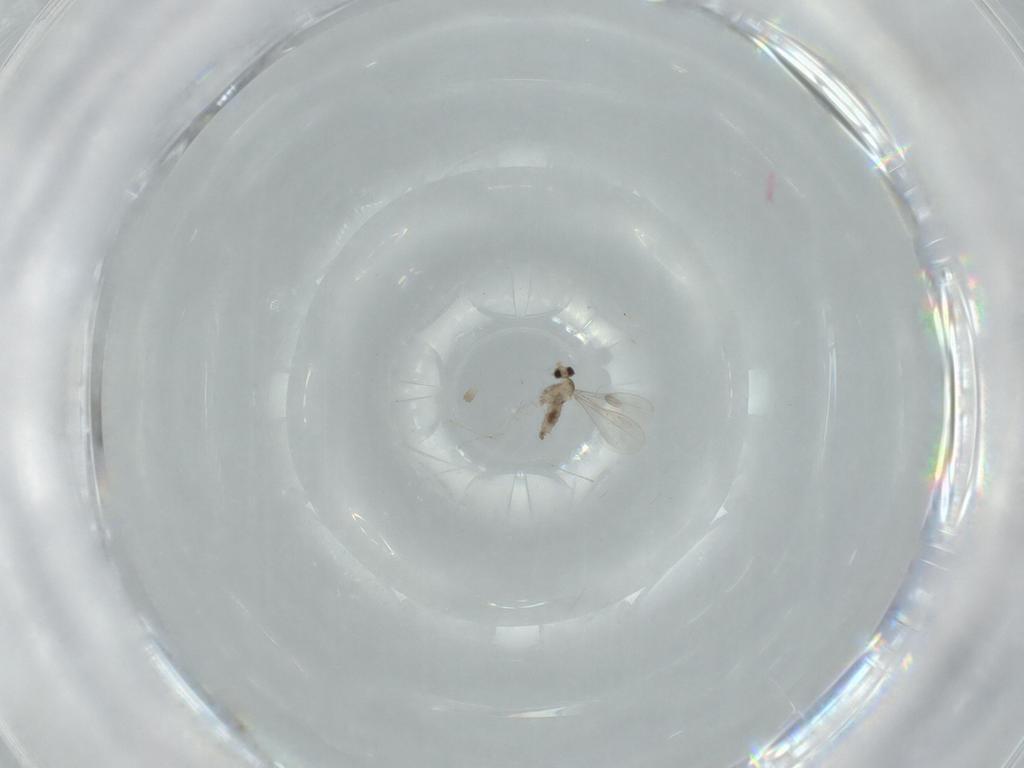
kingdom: Animalia
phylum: Arthropoda
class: Insecta
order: Diptera
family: Cecidomyiidae
